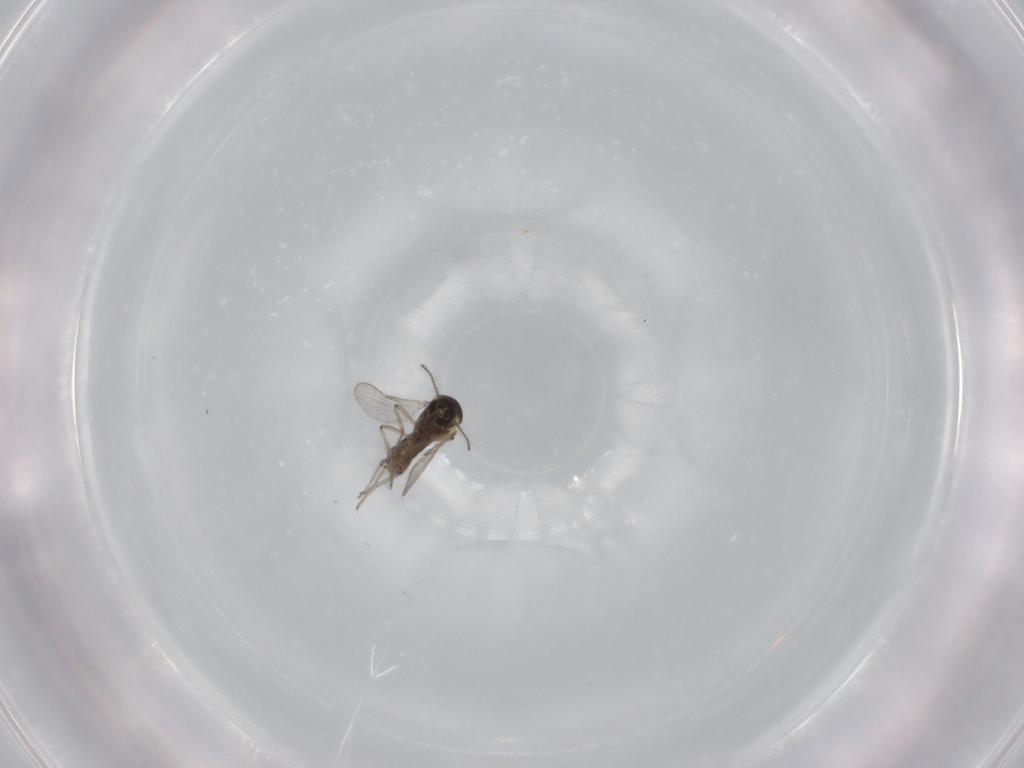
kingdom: Animalia
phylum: Arthropoda
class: Insecta
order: Diptera
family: Ceratopogonidae
